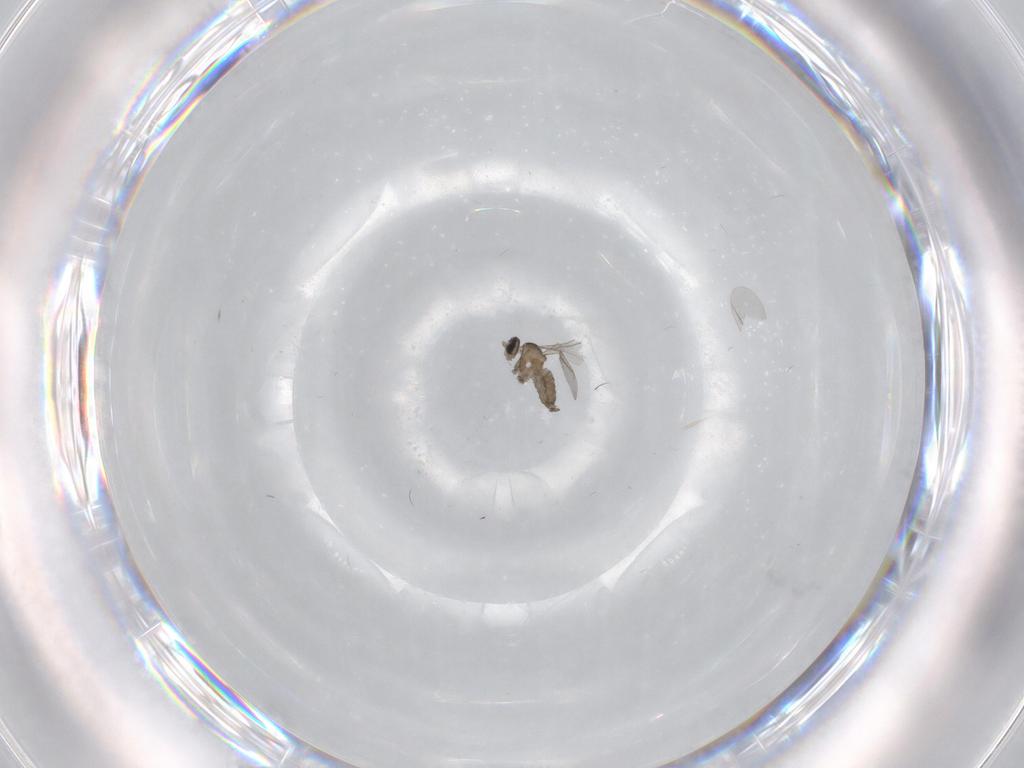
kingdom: Animalia
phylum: Arthropoda
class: Insecta
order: Diptera
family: Cecidomyiidae
